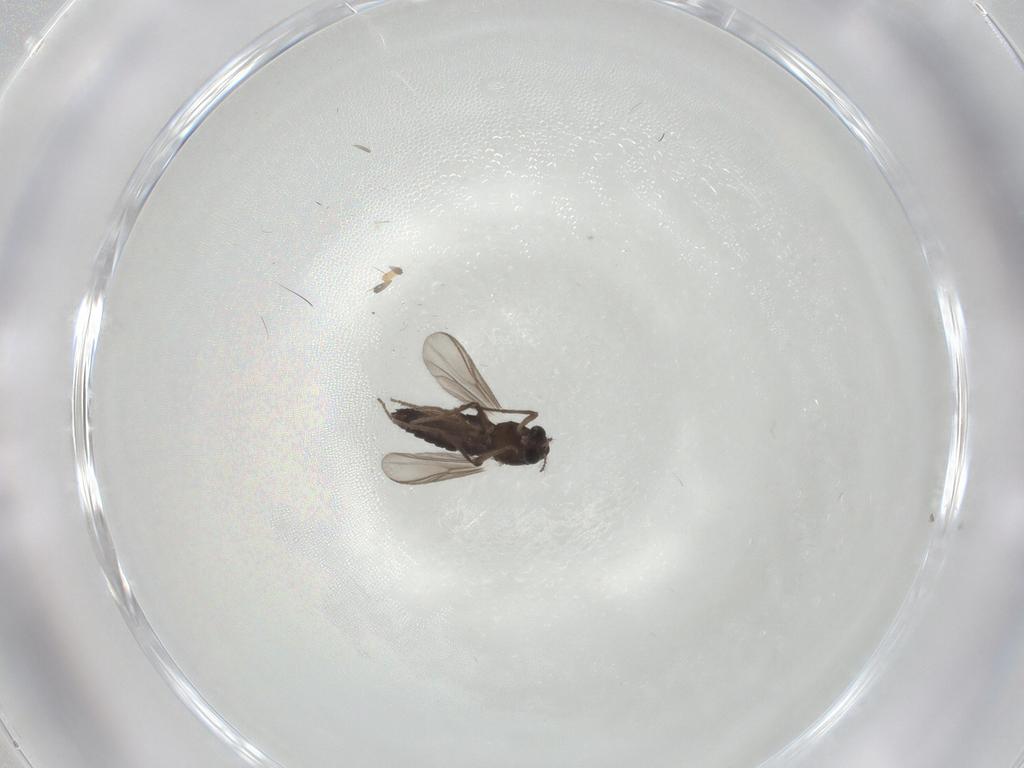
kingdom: Animalia
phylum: Arthropoda
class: Insecta
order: Diptera
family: Chironomidae
